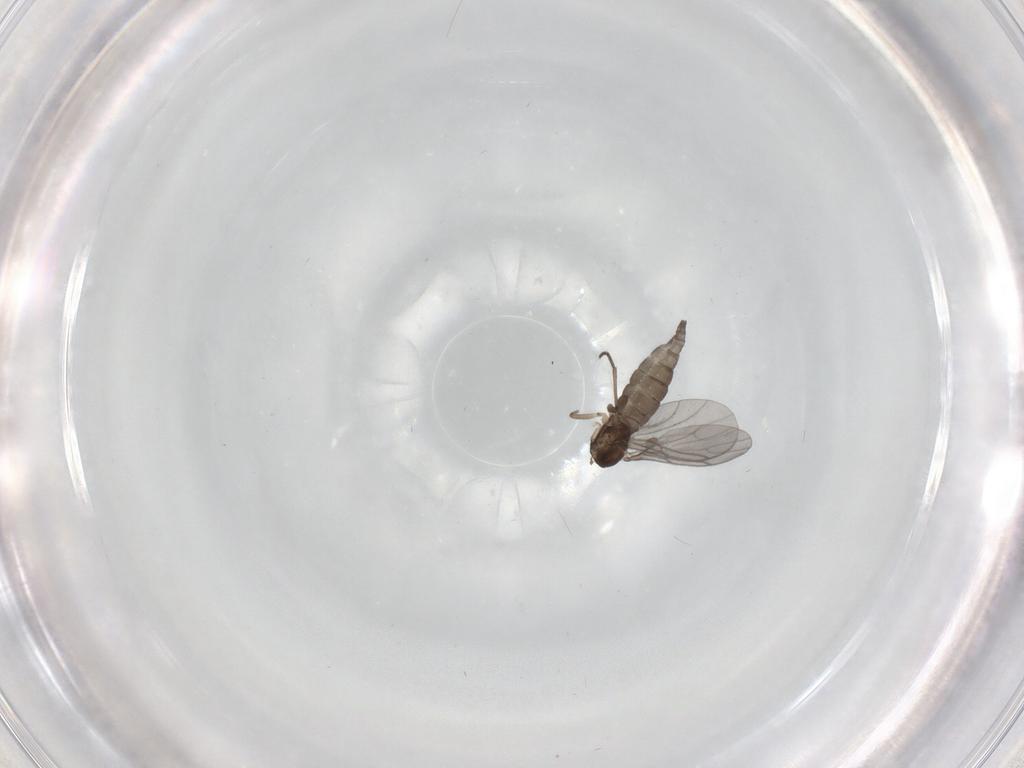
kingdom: Animalia
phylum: Arthropoda
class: Insecta
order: Diptera
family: Sciaridae
